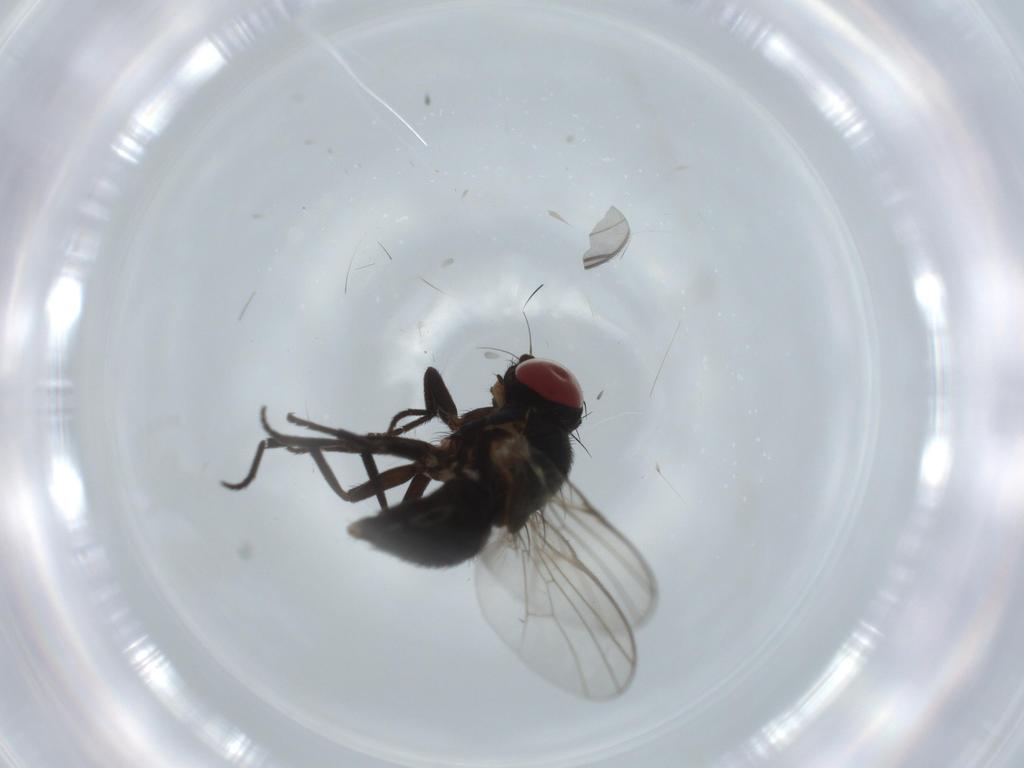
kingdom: Animalia
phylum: Arthropoda
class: Insecta
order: Diptera
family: Agromyzidae
